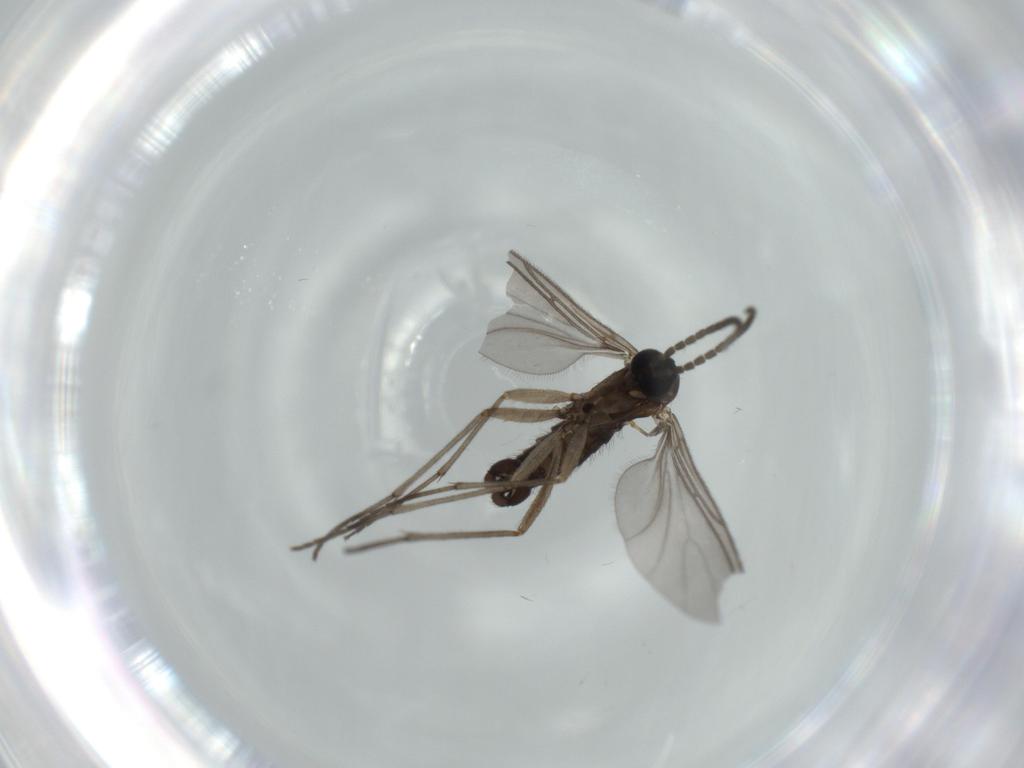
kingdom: Animalia
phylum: Arthropoda
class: Insecta
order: Diptera
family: Sciaridae
